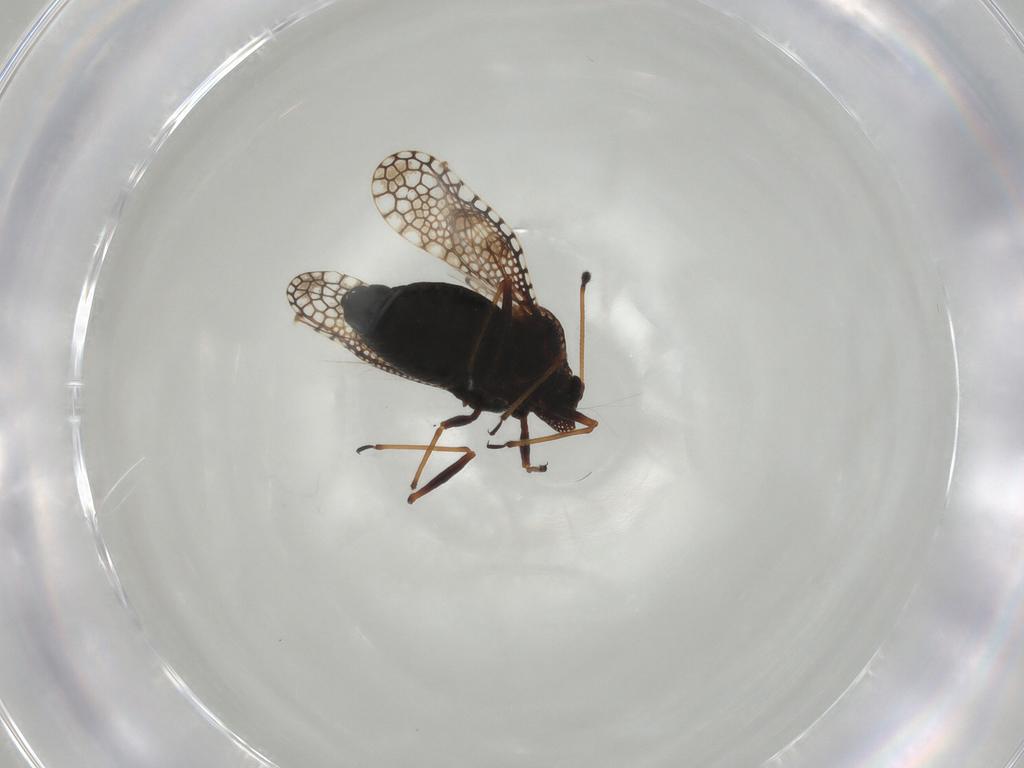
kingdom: Animalia
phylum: Arthropoda
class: Insecta
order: Hemiptera
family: Tingidae
